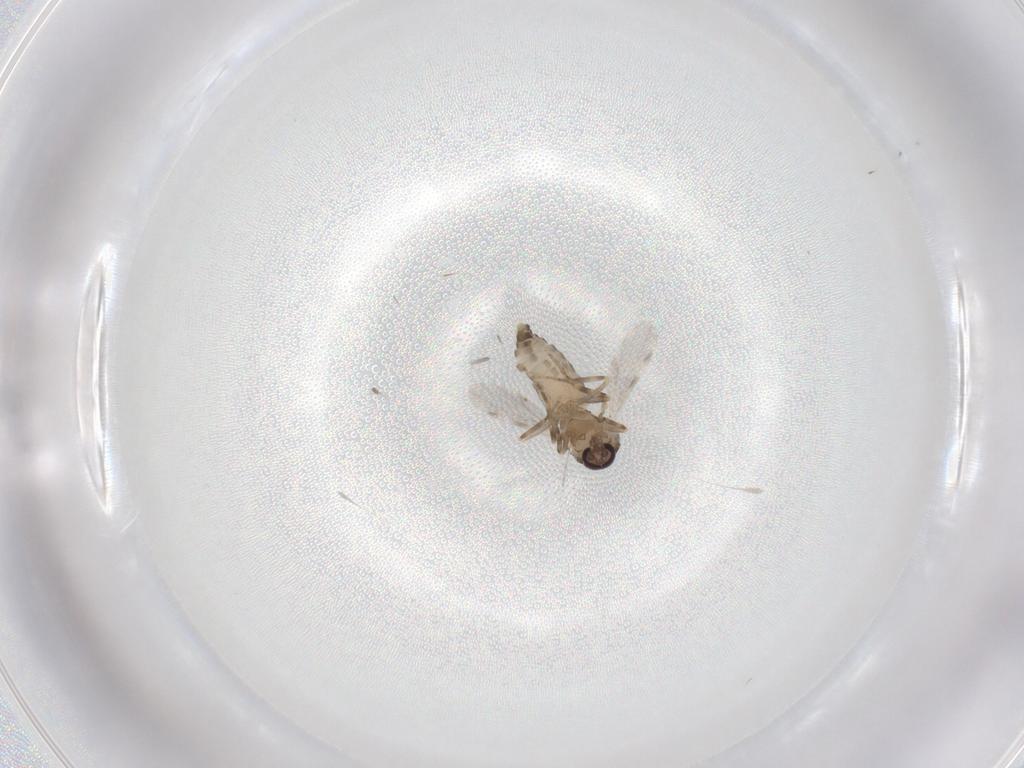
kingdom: Animalia
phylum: Arthropoda
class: Insecta
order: Diptera
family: Ceratopogonidae
